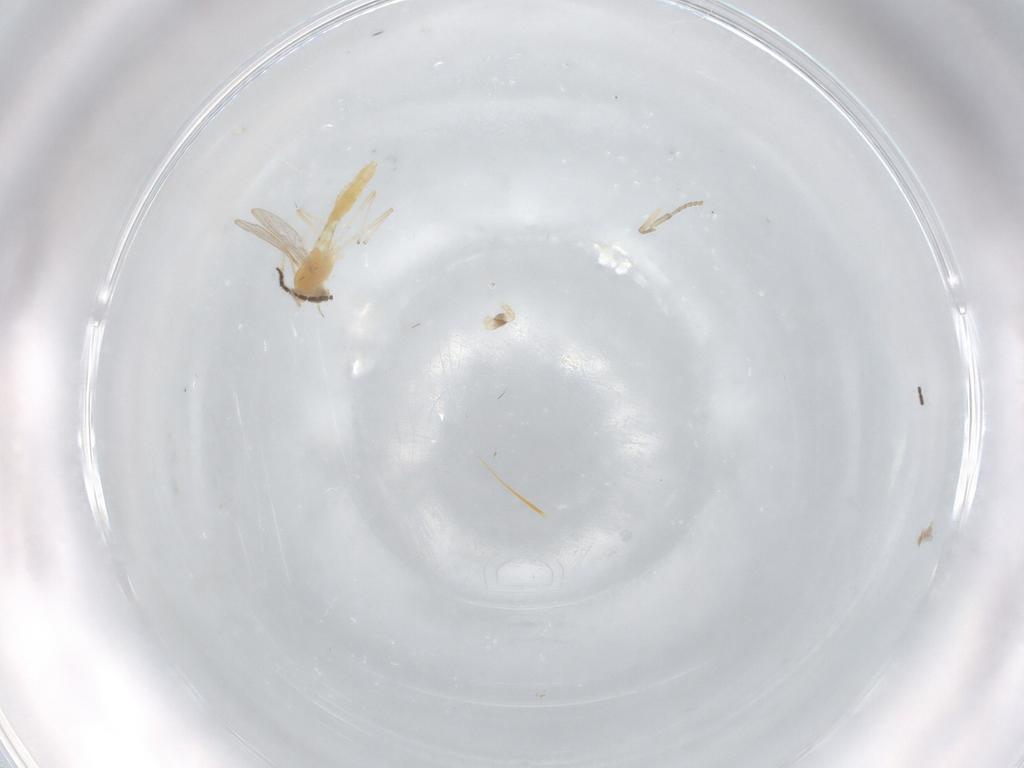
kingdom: Animalia
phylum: Arthropoda
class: Insecta
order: Diptera
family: Chironomidae
